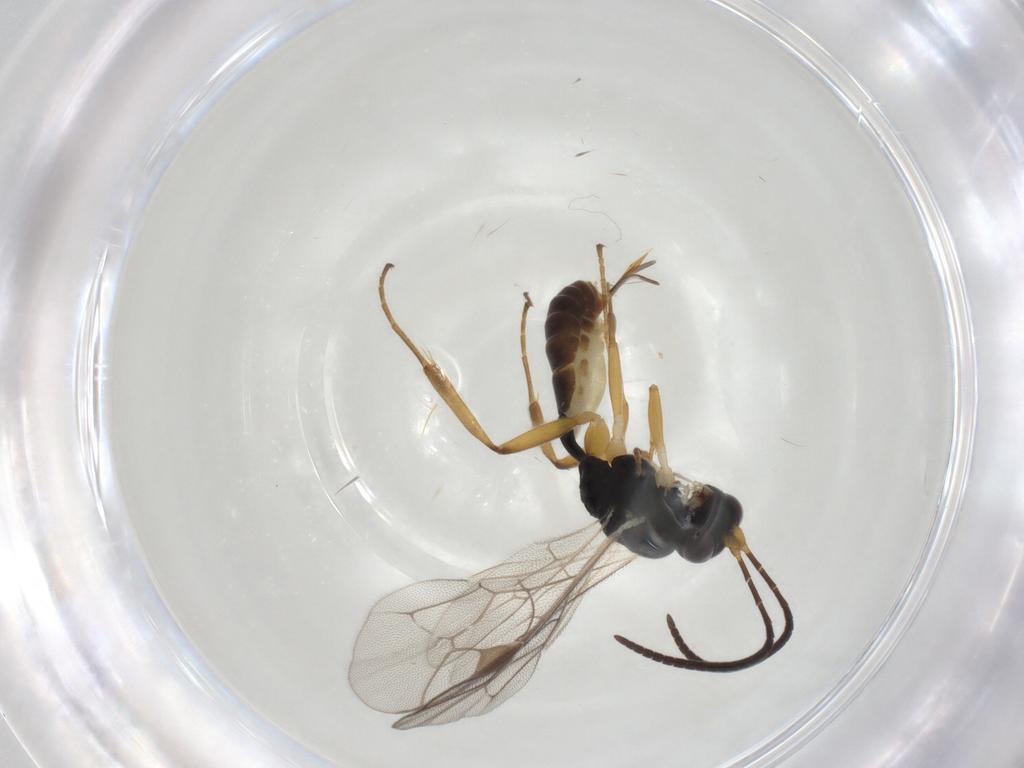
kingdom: Animalia
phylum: Arthropoda
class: Insecta
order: Hymenoptera
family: Ichneumonidae
